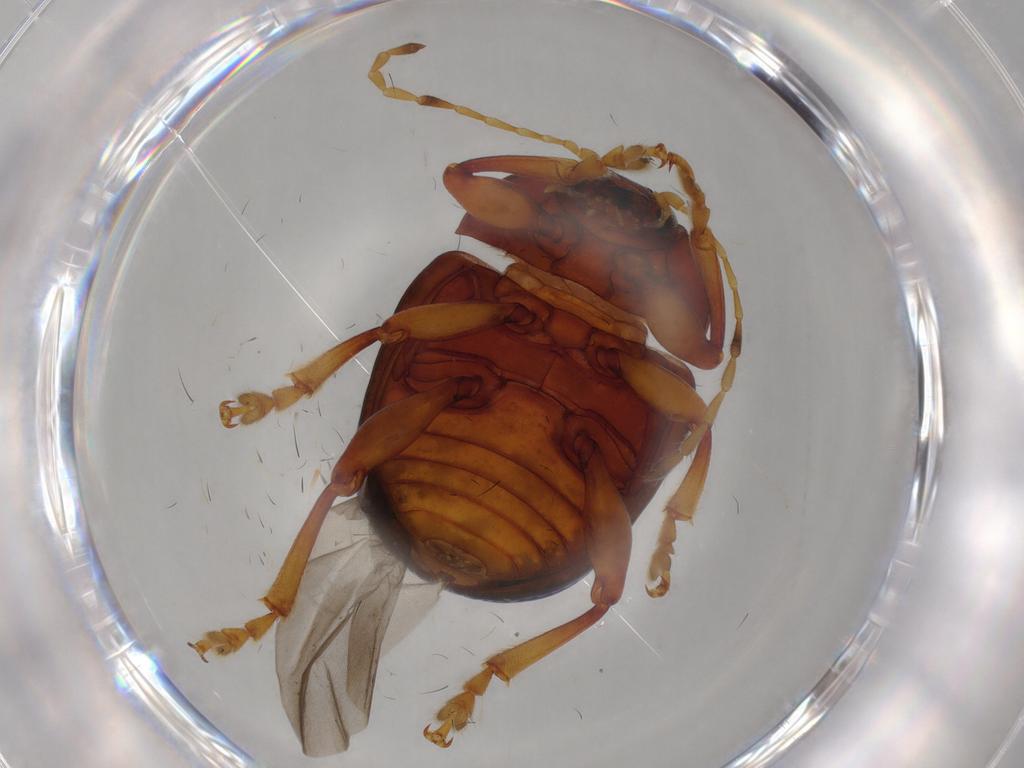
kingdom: Animalia
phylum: Arthropoda
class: Insecta
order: Coleoptera
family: Chrysomelidae
